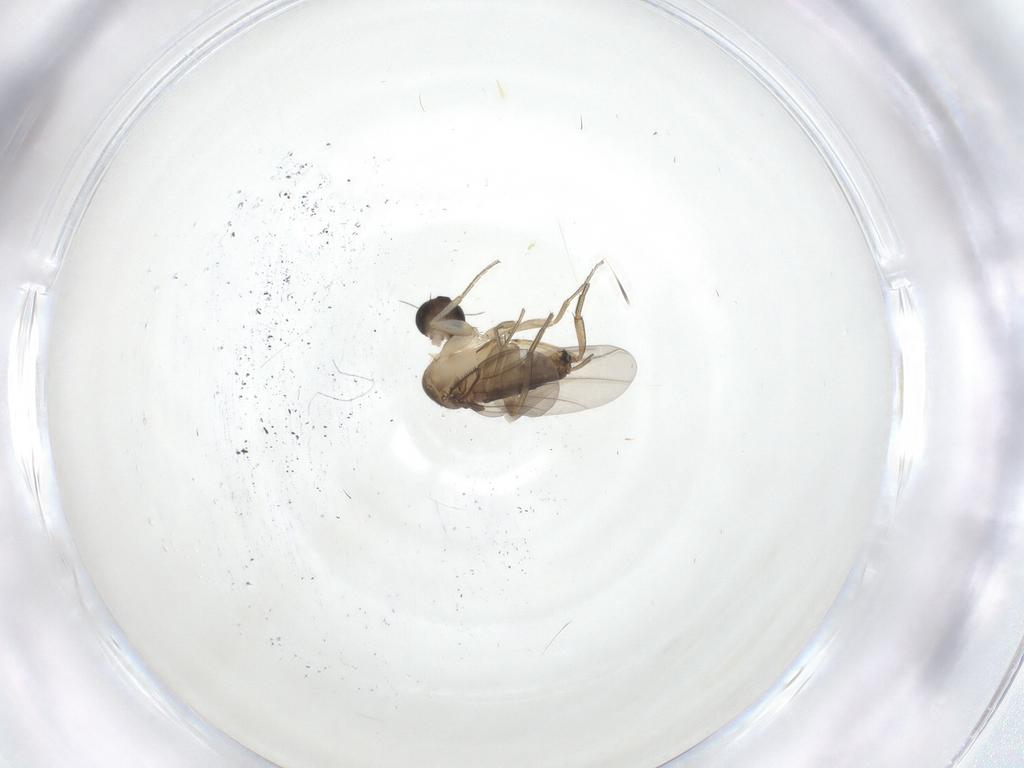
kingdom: Animalia
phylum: Arthropoda
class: Insecta
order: Diptera
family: Phoridae
